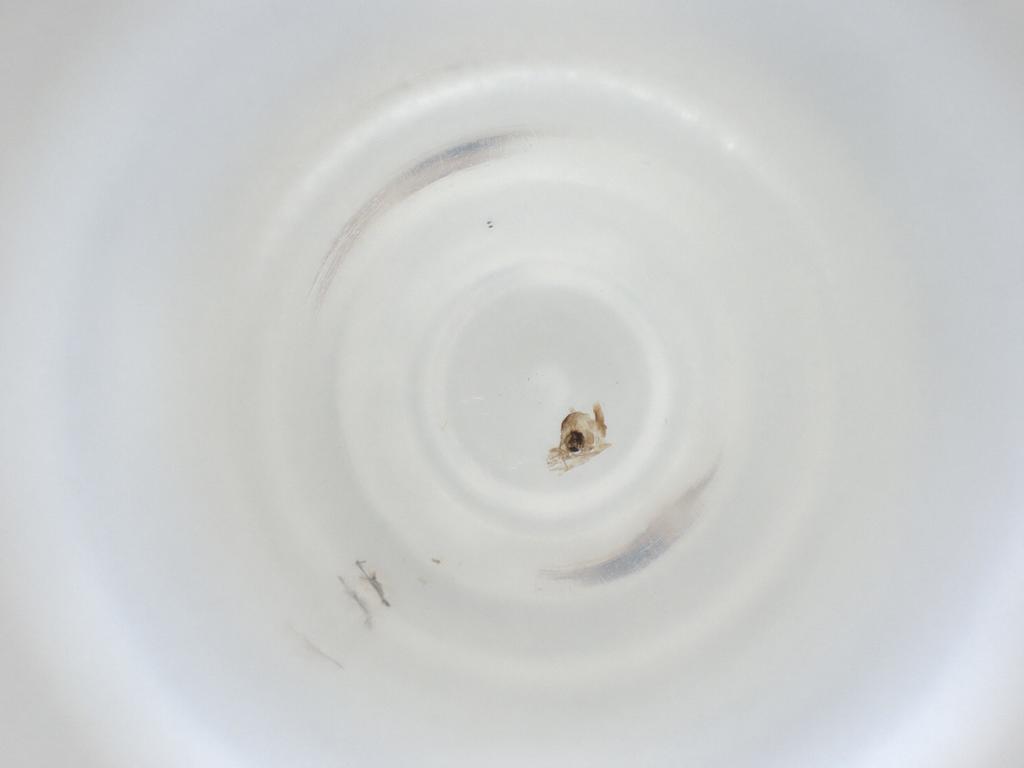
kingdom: Animalia
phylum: Arthropoda
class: Insecta
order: Diptera
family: Cecidomyiidae
